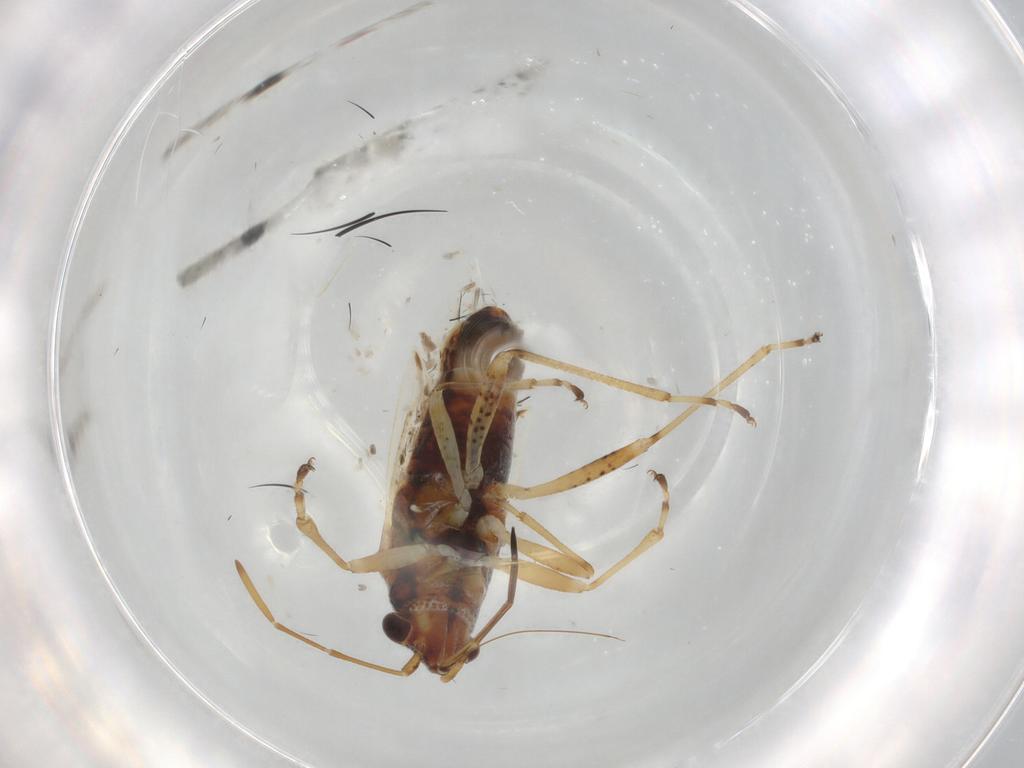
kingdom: Animalia
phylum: Arthropoda
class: Insecta
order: Hemiptera
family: Lygaeidae
